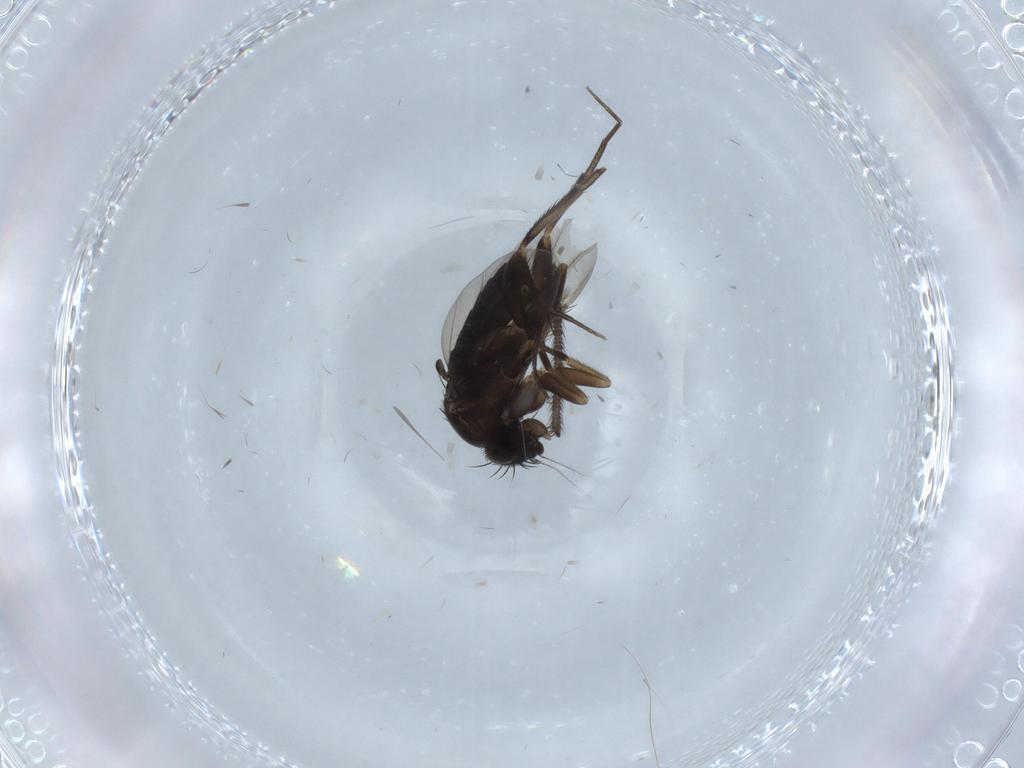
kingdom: Animalia
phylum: Arthropoda
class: Insecta
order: Diptera
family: Phoridae
